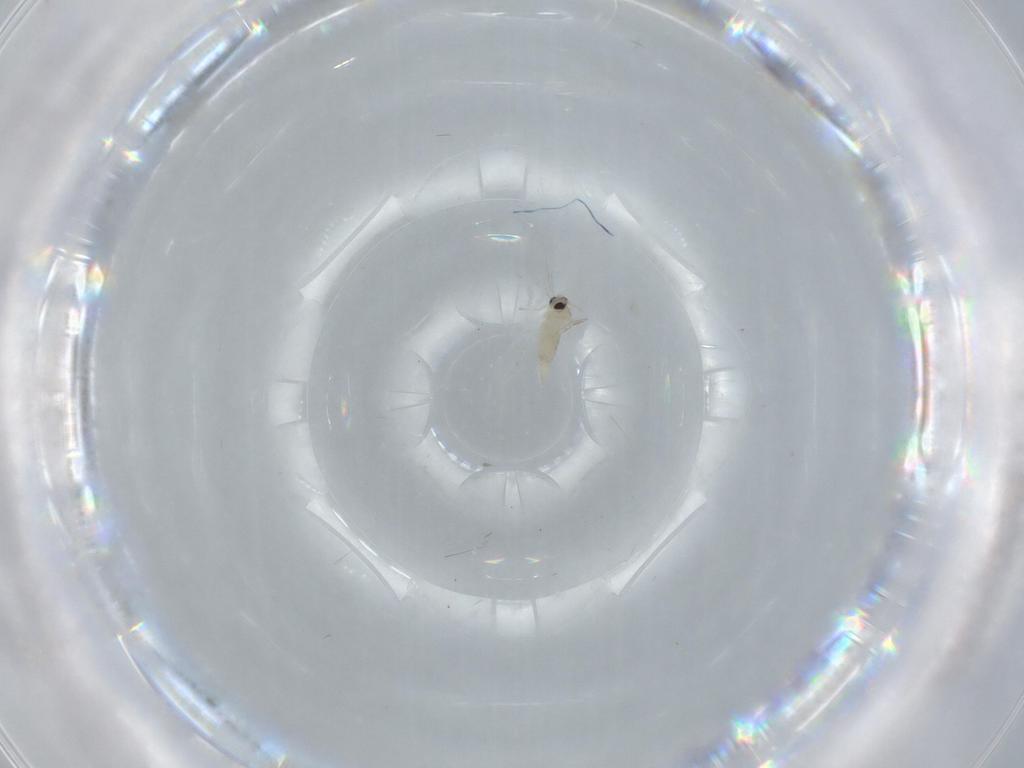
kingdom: Animalia
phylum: Arthropoda
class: Insecta
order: Diptera
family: Cecidomyiidae
